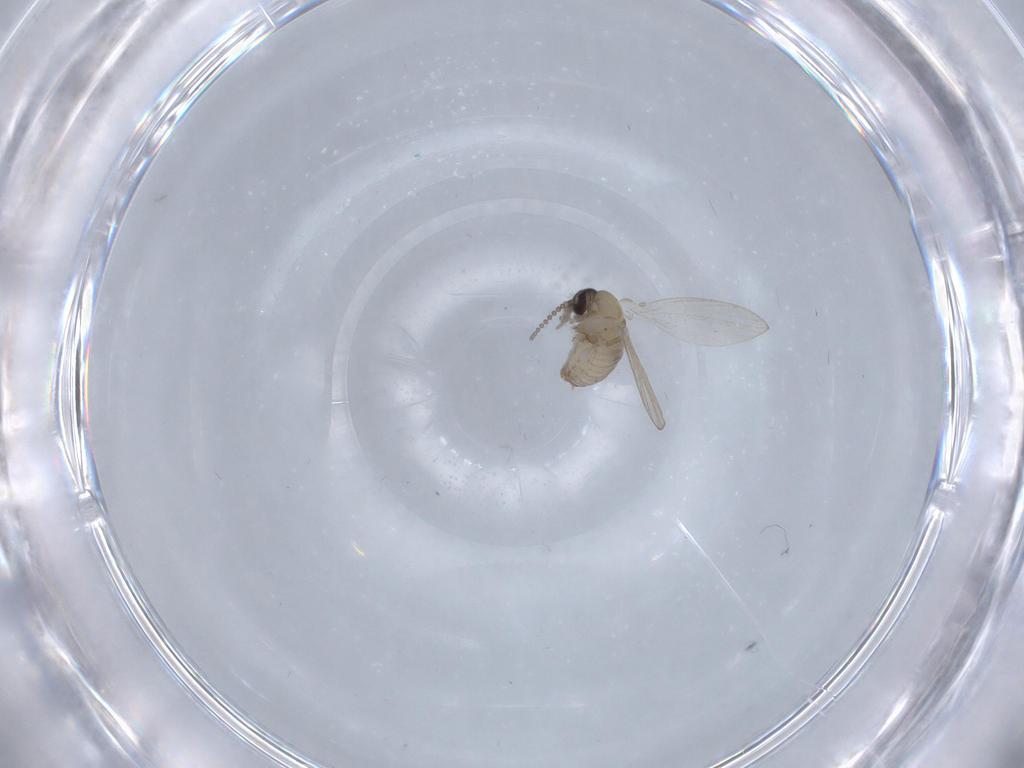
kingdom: Animalia
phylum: Arthropoda
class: Insecta
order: Diptera
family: Psychodidae
